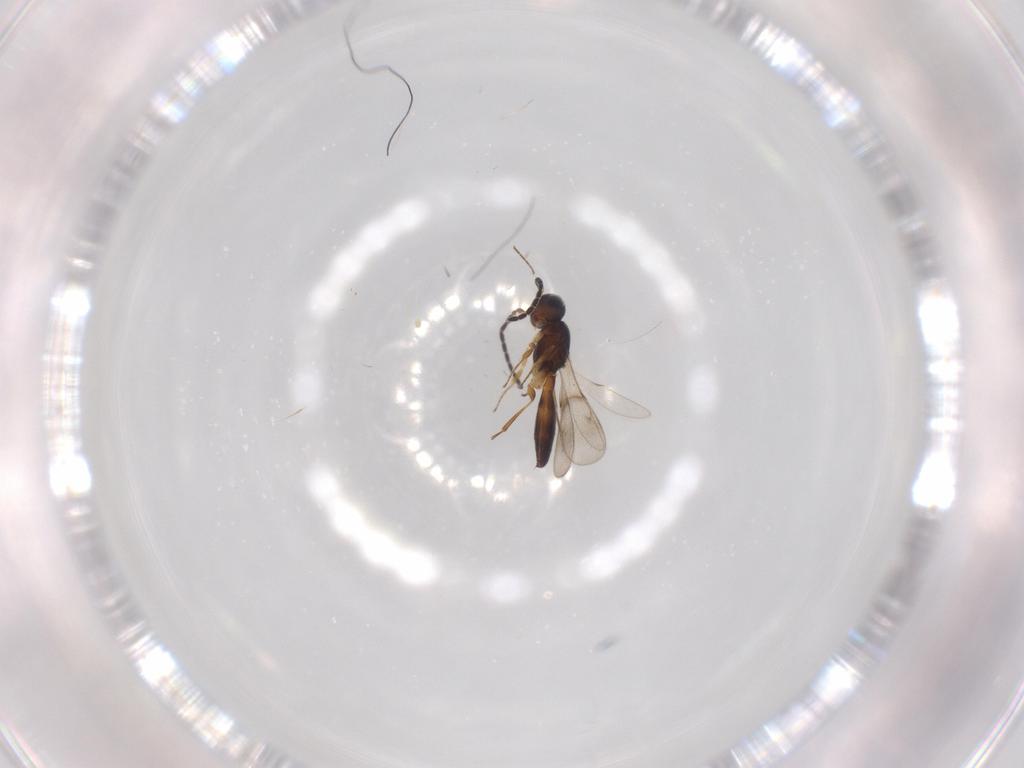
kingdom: Animalia
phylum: Arthropoda
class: Insecta
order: Hymenoptera
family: Scelionidae
